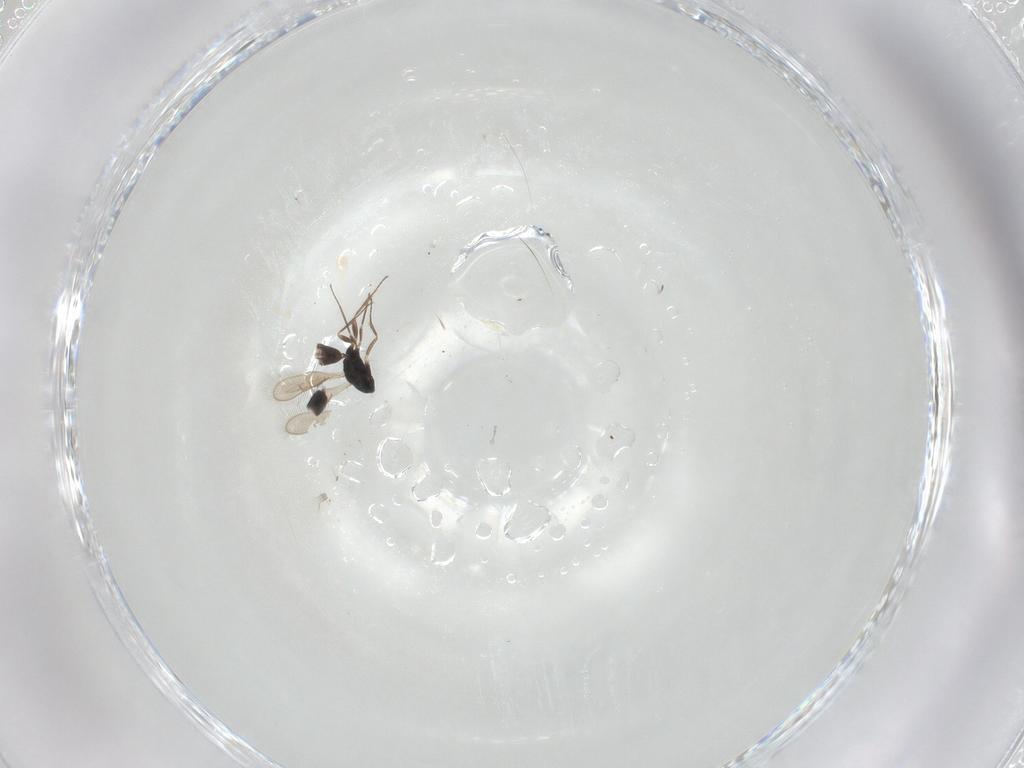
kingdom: Animalia
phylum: Arthropoda
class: Insecta
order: Hymenoptera
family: Pteromalidae
